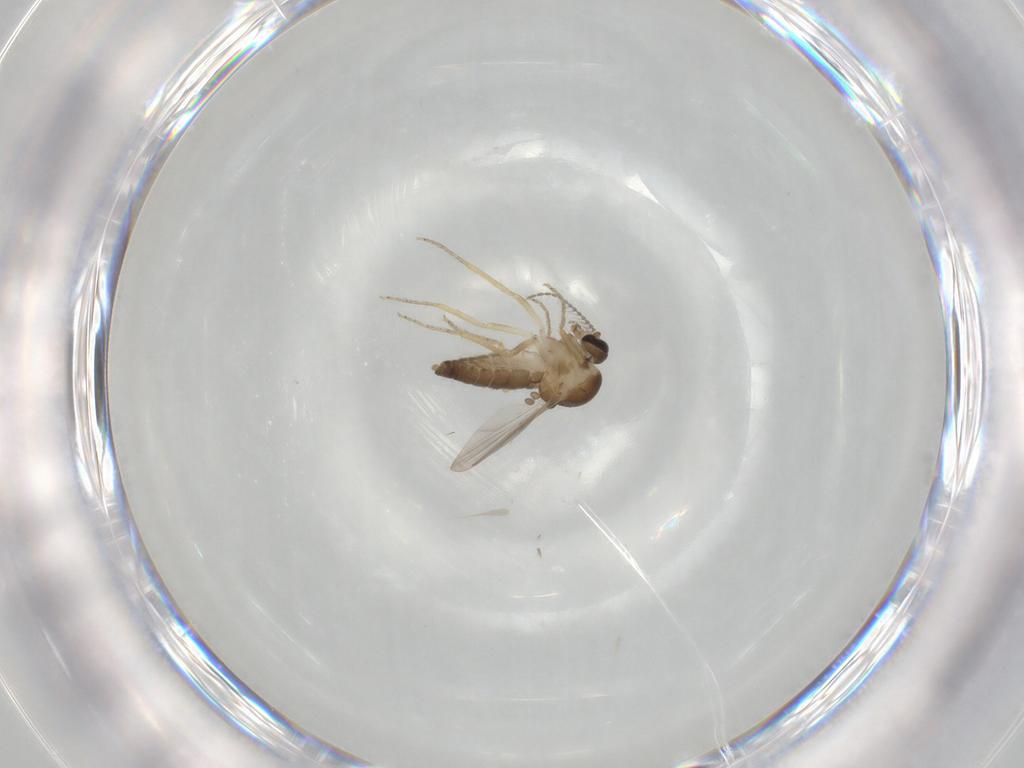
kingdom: Animalia
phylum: Arthropoda
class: Insecta
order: Diptera
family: Ceratopogonidae
